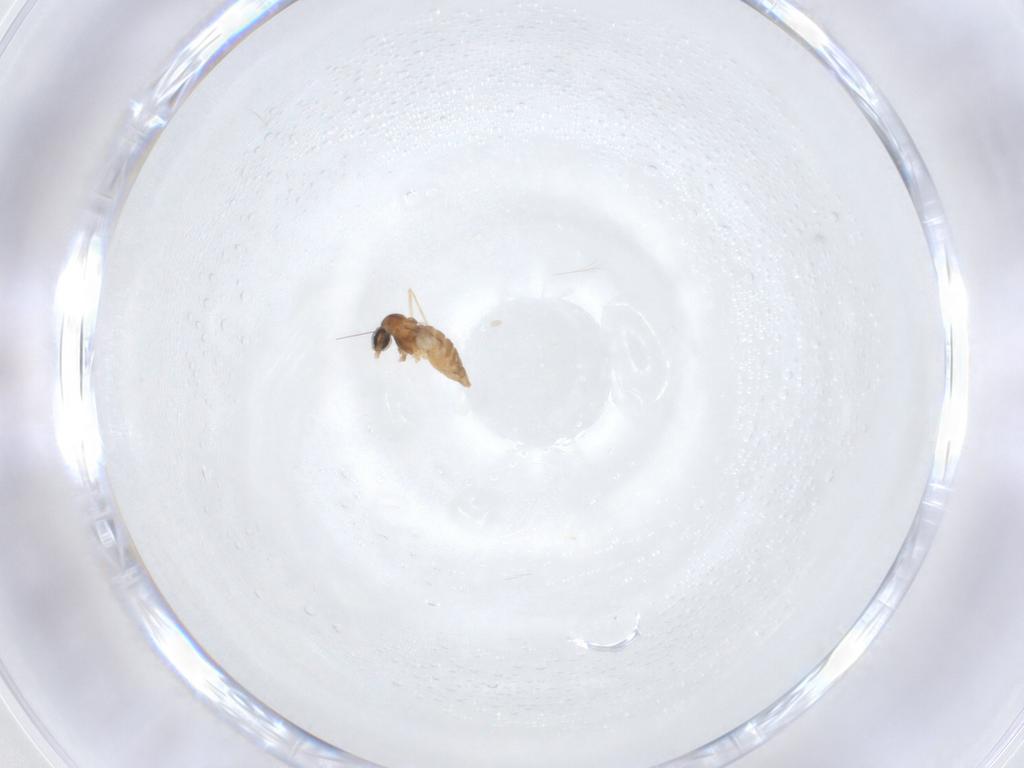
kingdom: Animalia
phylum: Arthropoda
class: Insecta
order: Diptera
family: Cecidomyiidae
